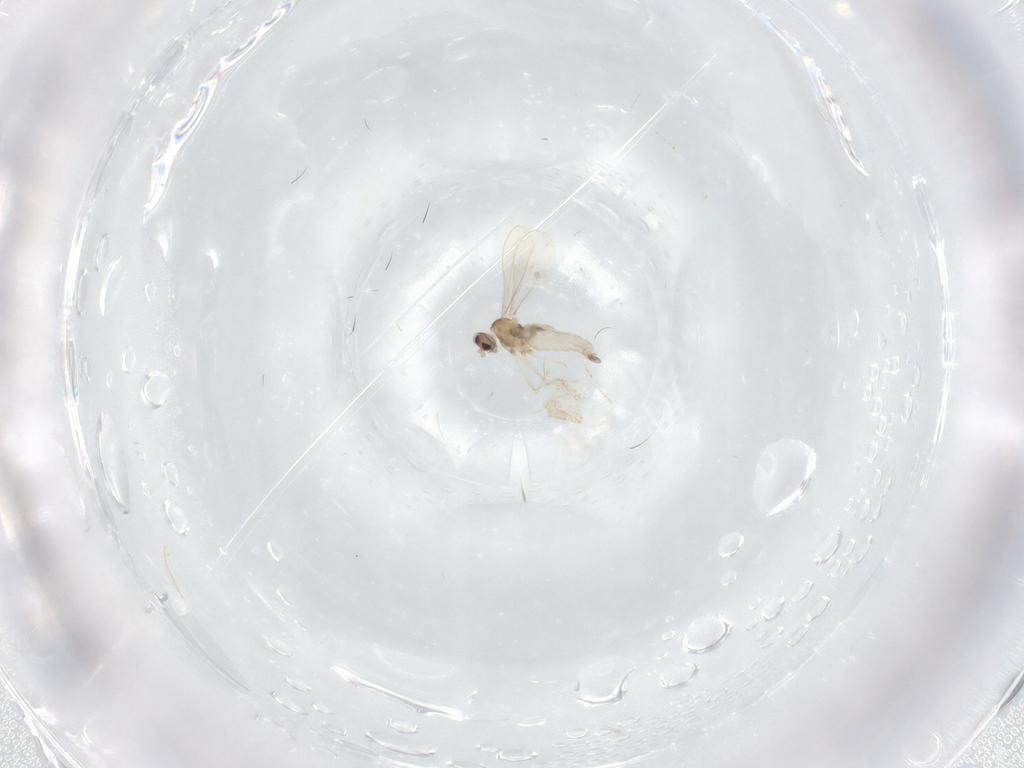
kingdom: Animalia
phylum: Arthropoda
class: Insecta
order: Diptera
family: Cecidomyiidae
